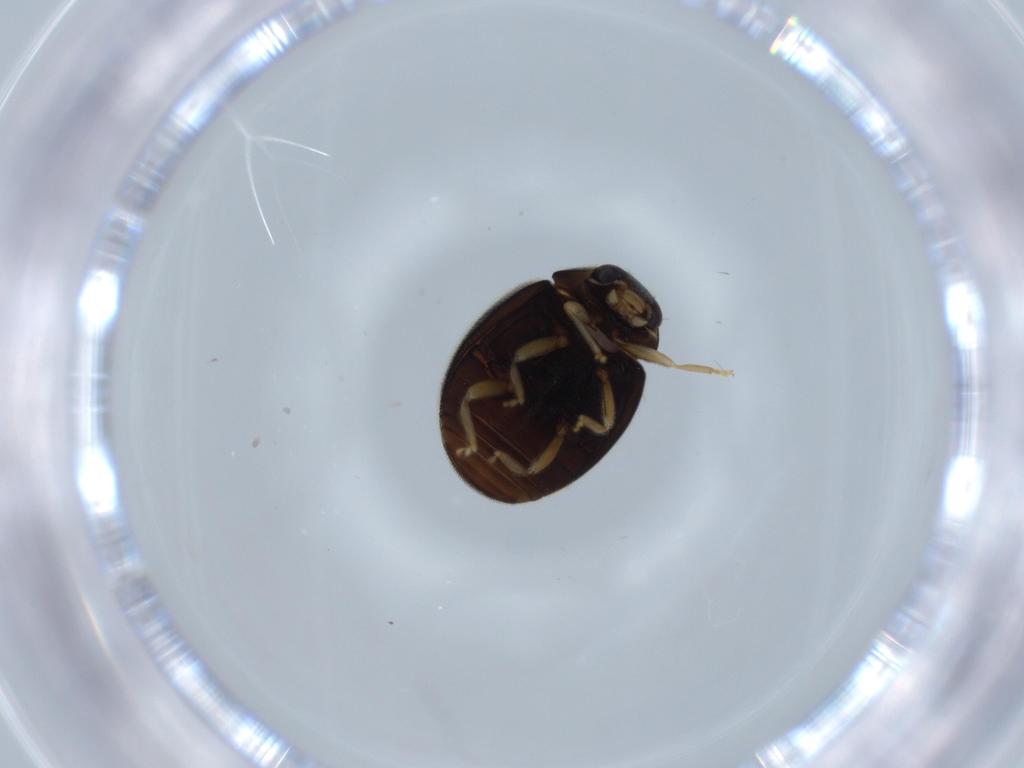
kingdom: Animalia
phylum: Arthropoda
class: Insecta
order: Coleoptera
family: Coccinellidae
